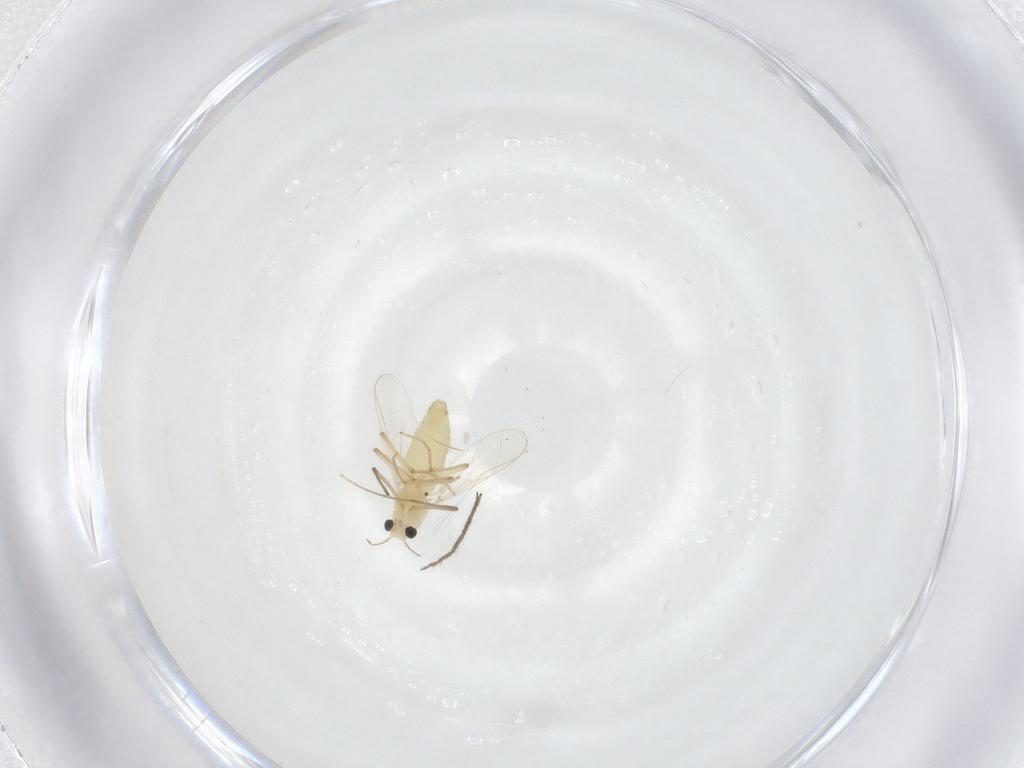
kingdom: Animalia
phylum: Arthropoda
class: Insecta
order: Diptera
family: Chironomidae
